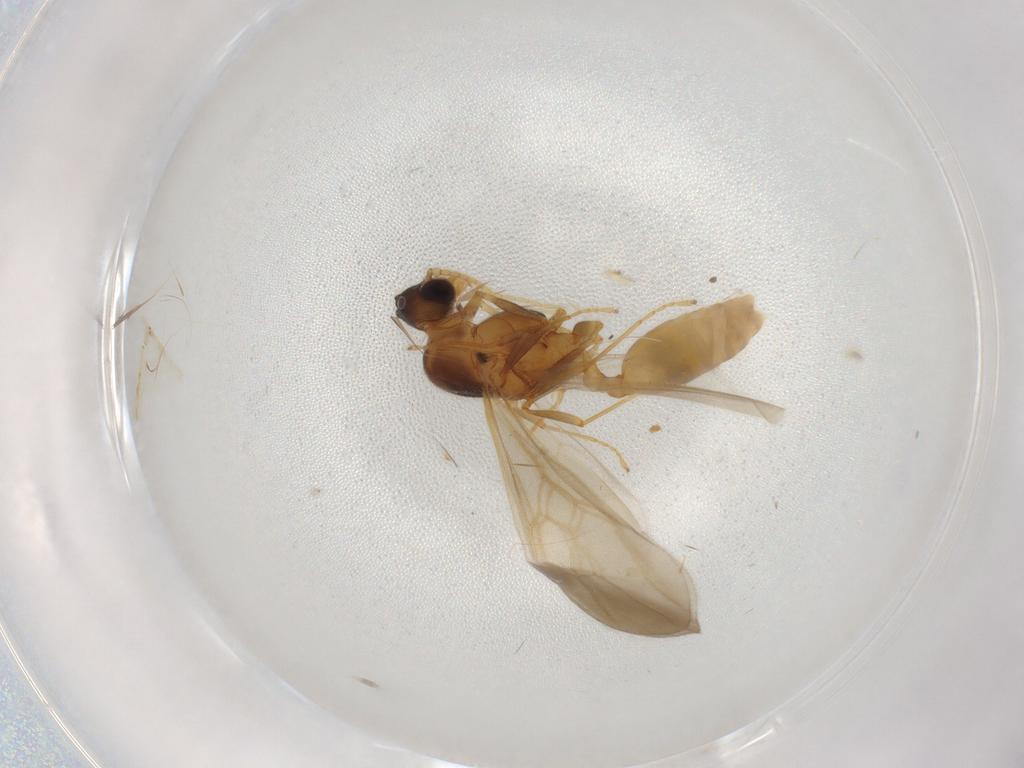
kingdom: Animalia
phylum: Arthropoda
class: Insecta
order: Hymenoptera
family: Formicidae
